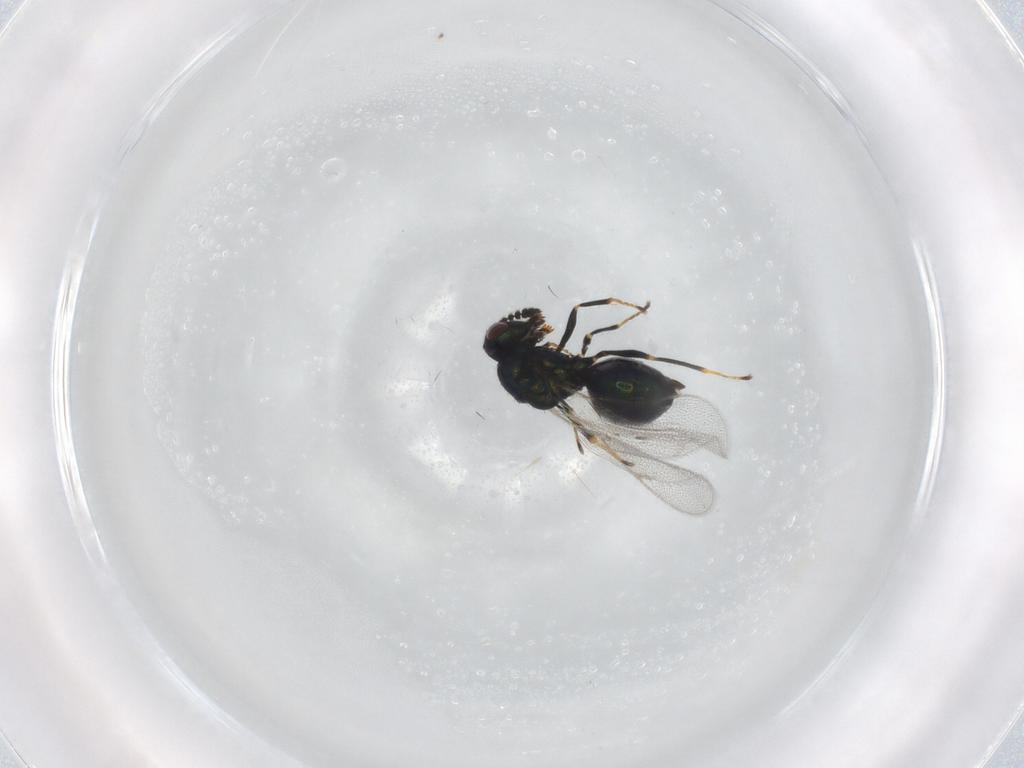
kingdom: Animalia
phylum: Arthropoda
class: Insecta
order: Hymenoptera
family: Pteromalidae
